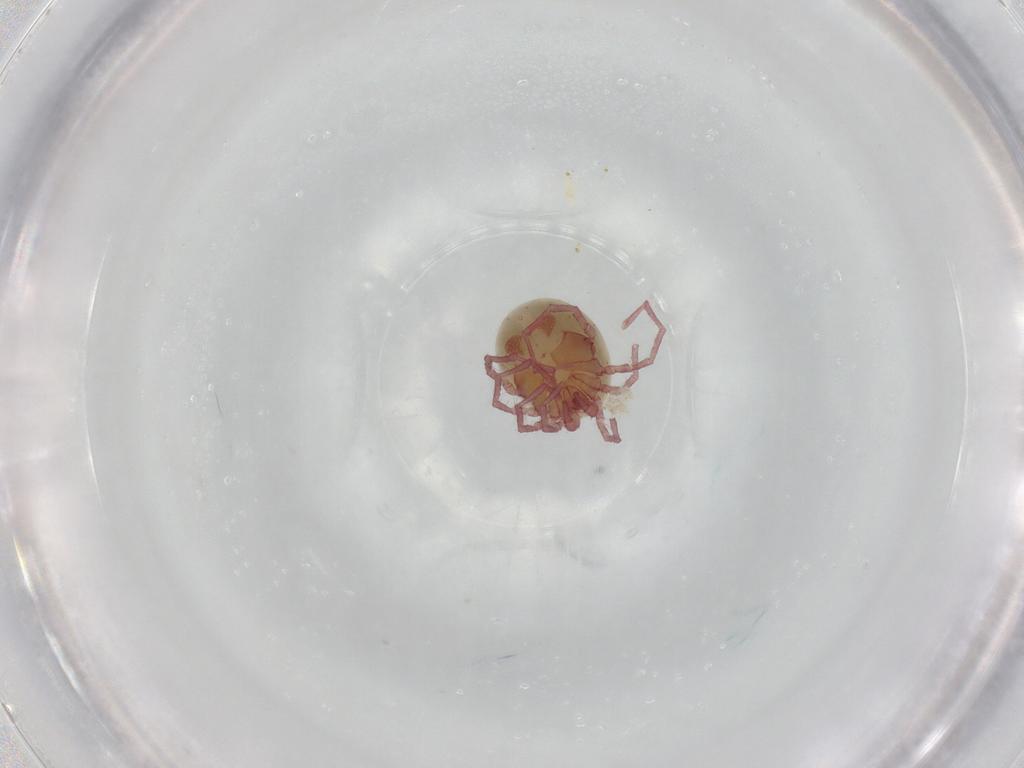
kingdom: Animalia
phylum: Arthropoda
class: Arachnida
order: Trombidiformes
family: Pionidae
